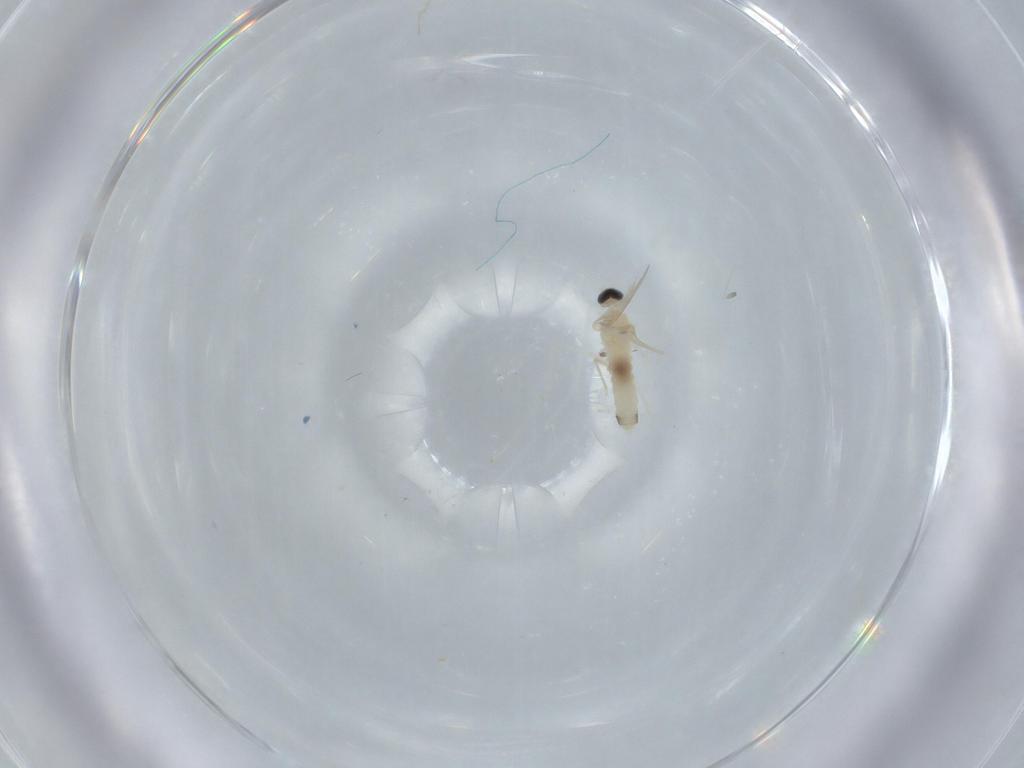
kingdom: Animalia
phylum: Arthropoda
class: Insecta
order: Diptera
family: Cecidomyiidae
